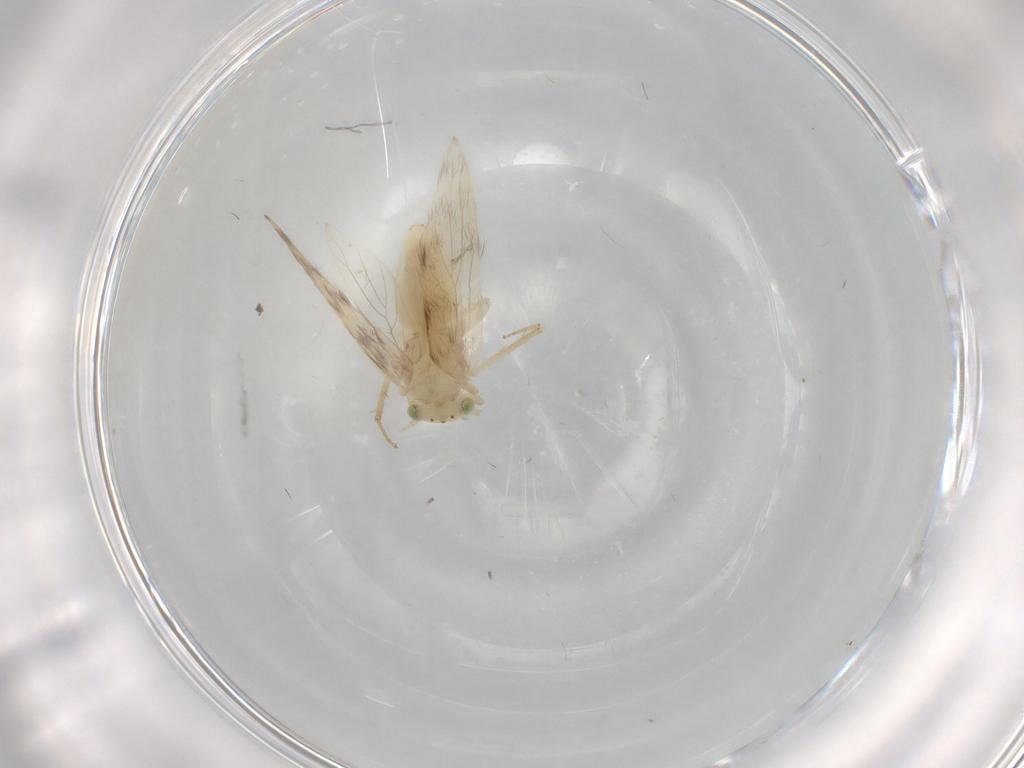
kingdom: Animalia
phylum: Arthropoda
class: Insecta
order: Psocodea
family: Lepidopsocidae
